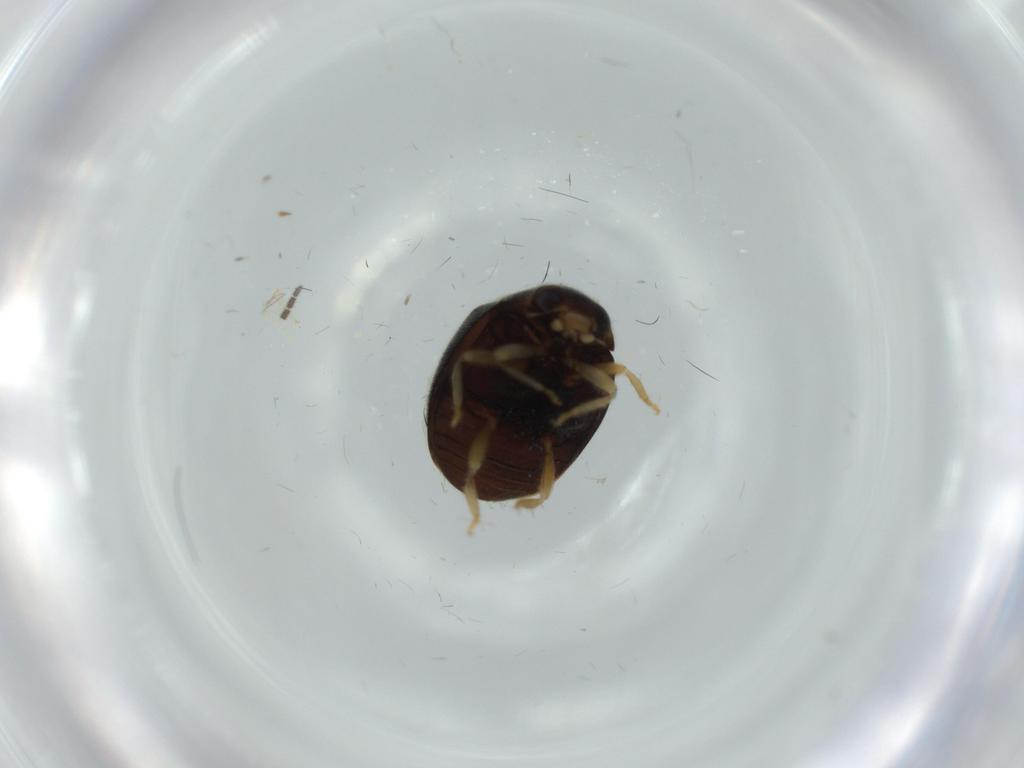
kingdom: Animalia
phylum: Arthropoda
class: Insecta
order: Coleoptera
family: Coccinellidae
